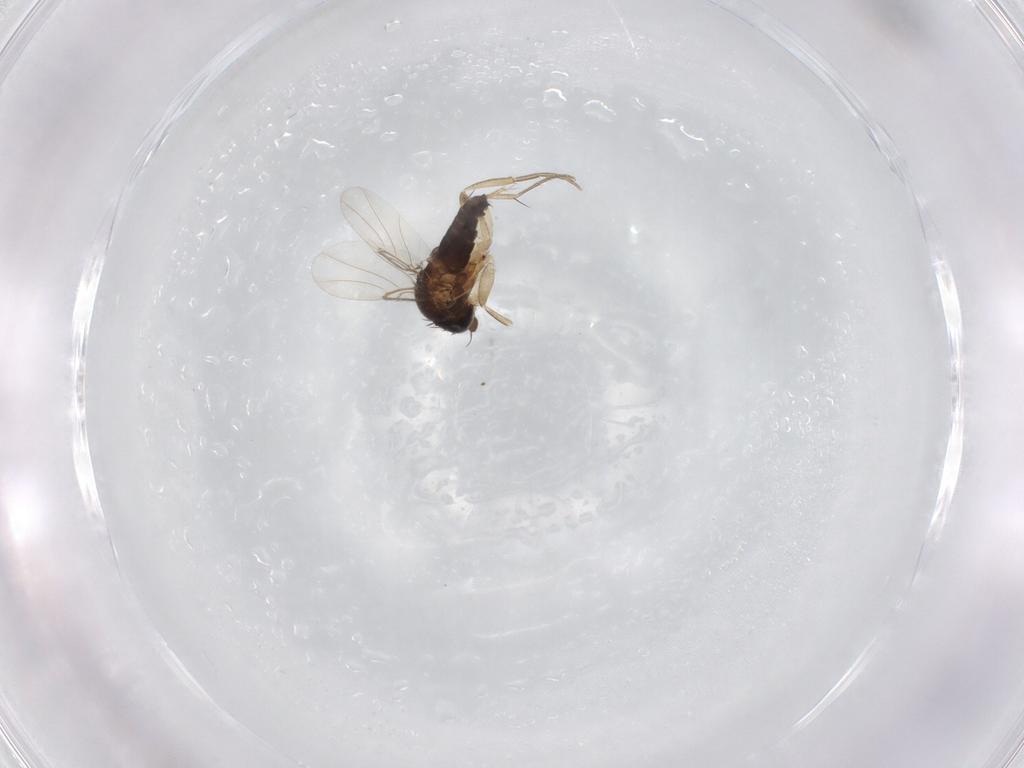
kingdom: Animalia
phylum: Arthropoda
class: Insecta
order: Diptera
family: Phoridae
